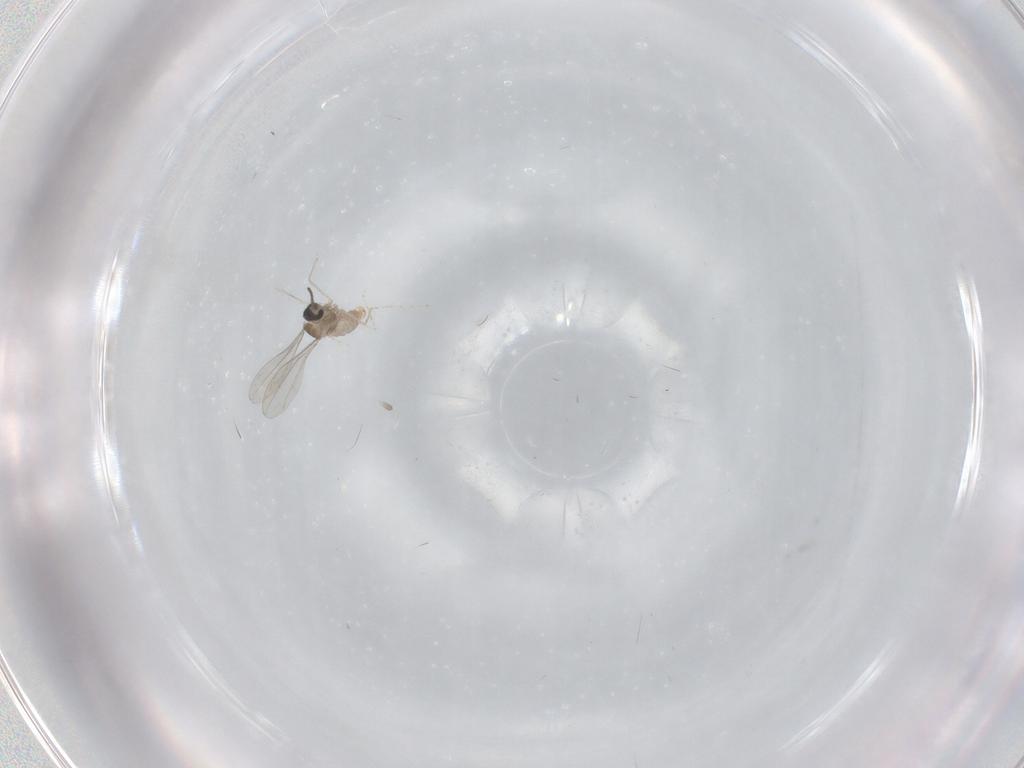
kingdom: Animalia
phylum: Arthropoda
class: Insecta
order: Diptera
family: Cecidomyiidae
